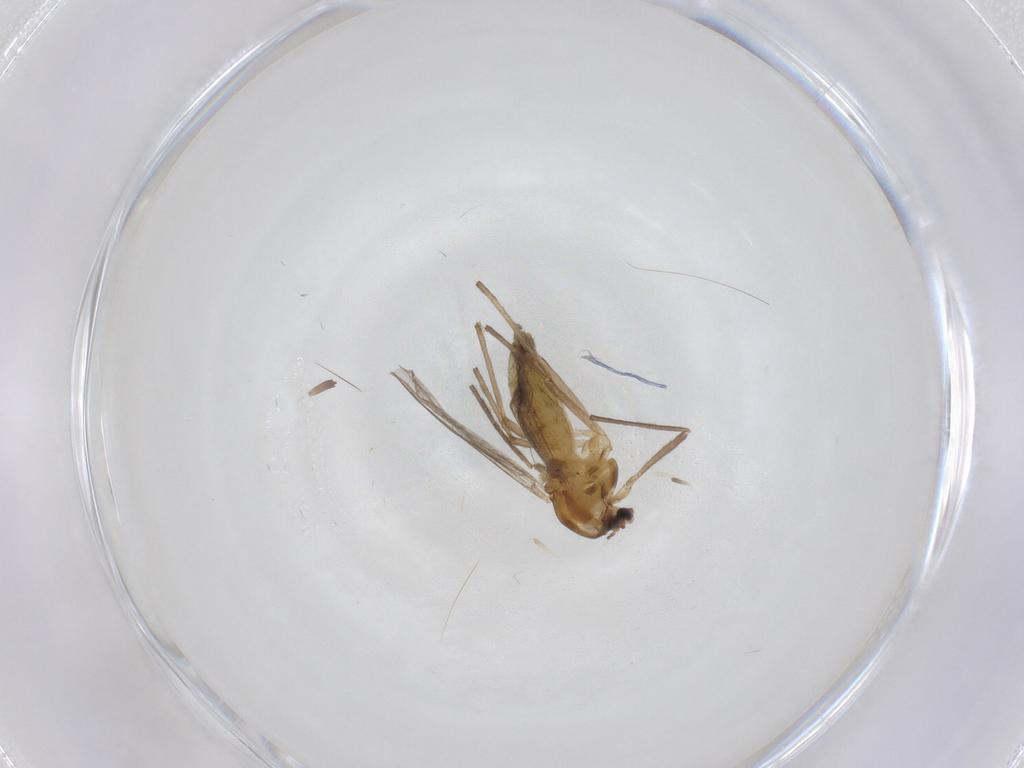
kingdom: Animalia
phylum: Arthropoda
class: Insecta
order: Diptera
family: Chironomidae
